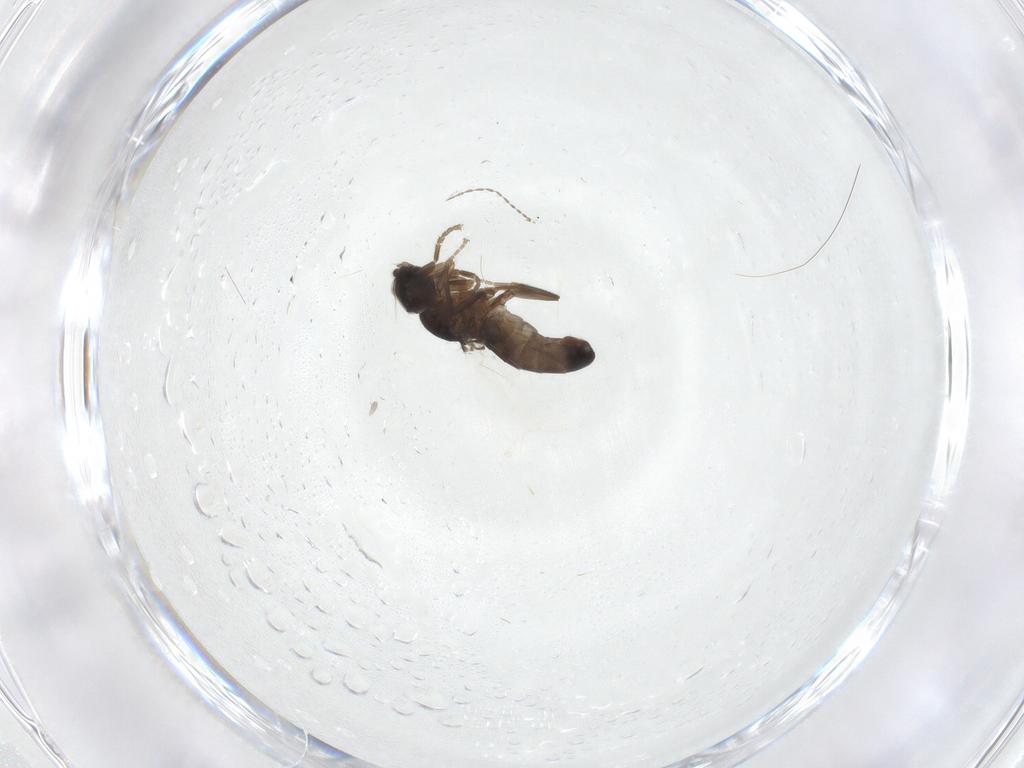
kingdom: Animalia
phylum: Arthropoda
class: Insecta
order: Diptera
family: Cecidomyiidae
